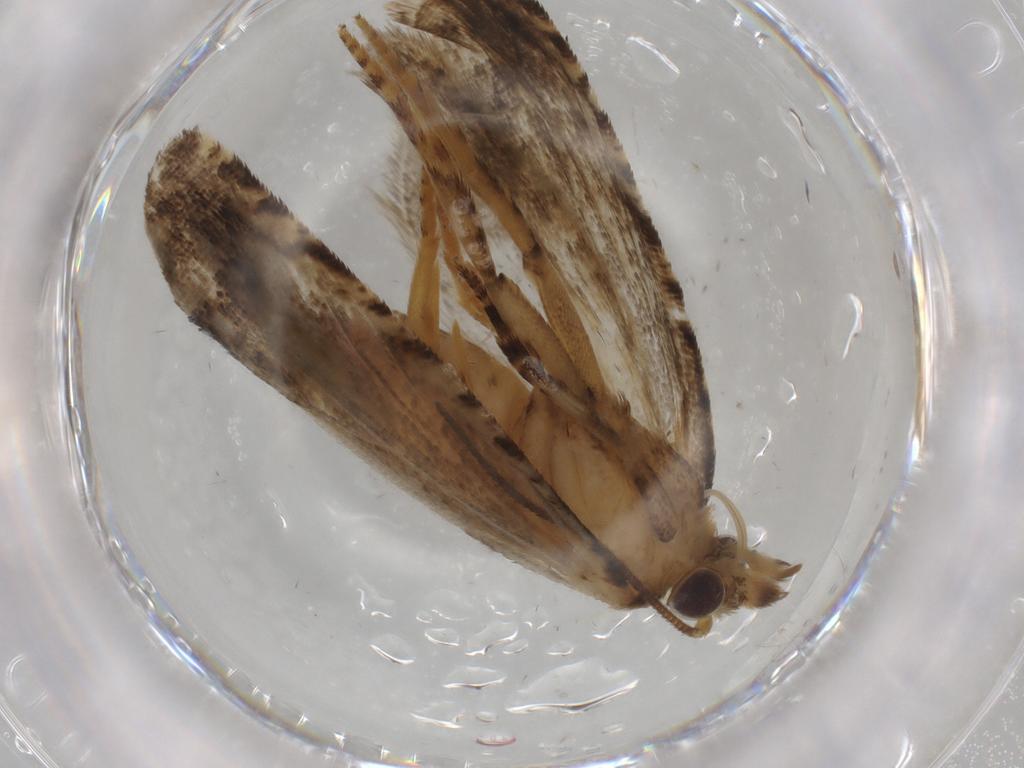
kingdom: Animalia
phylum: Arthropoda
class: Insecta
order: Lepidoptera
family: Tortricidae
